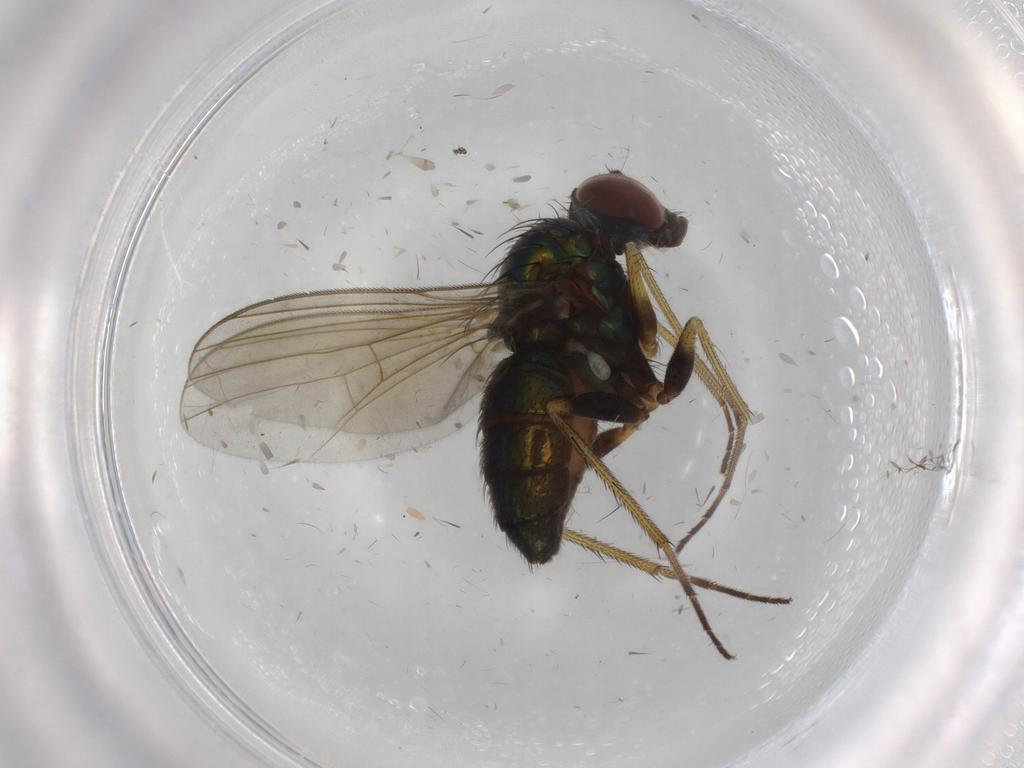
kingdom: Animalia
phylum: Arthropoda
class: Insecta
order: Diptera
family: Dolichopodidae
